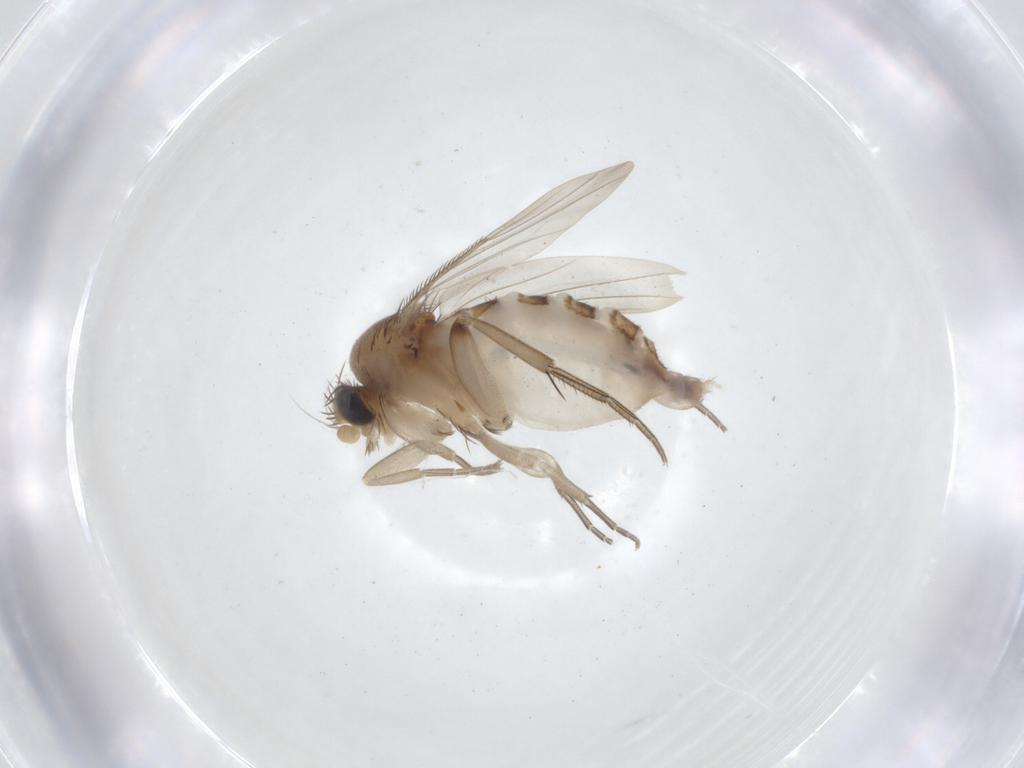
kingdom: Animalia
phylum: Arthropoda
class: Insecta
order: Diptera
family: Phoridae
